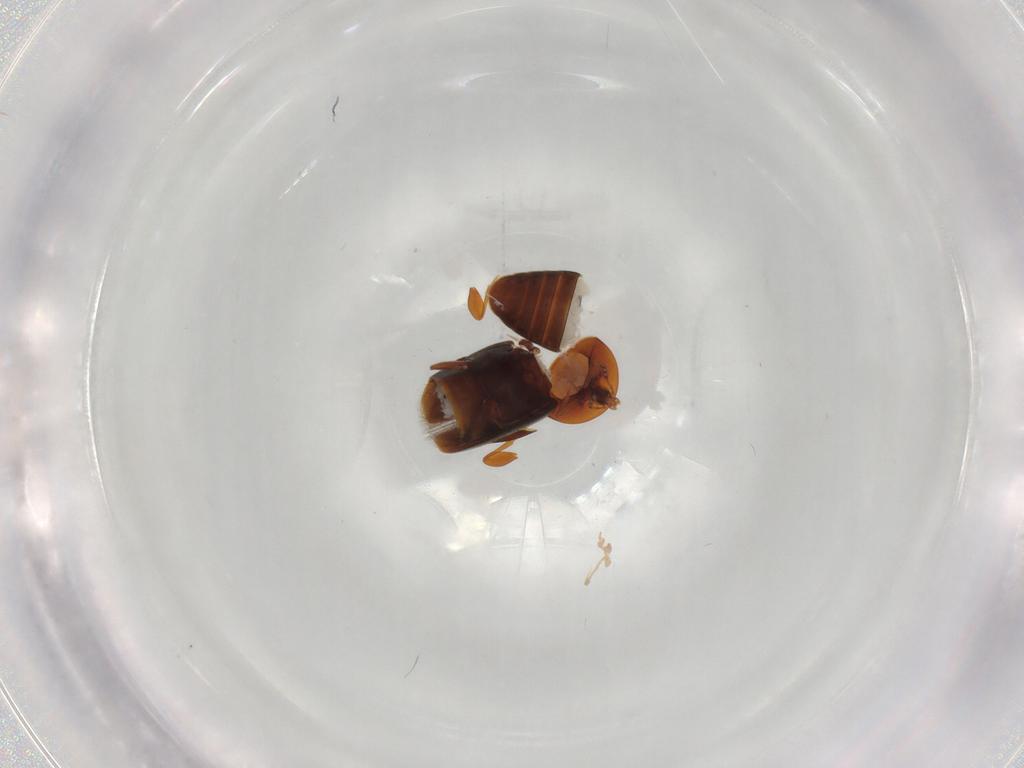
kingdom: Animalia
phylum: Arthropoda
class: Insecta
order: Coleoptera
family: Corylophidae
